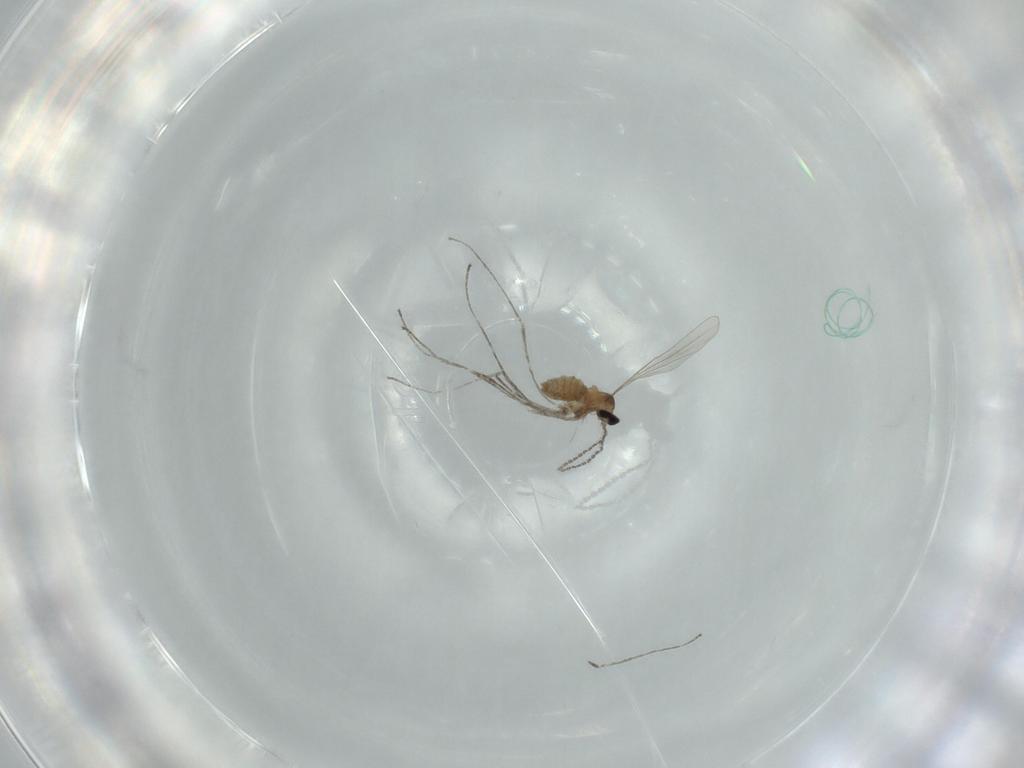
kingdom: Animalia
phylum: Arthropoda
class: Insecta
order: Diptera
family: Cecidomyiidae
